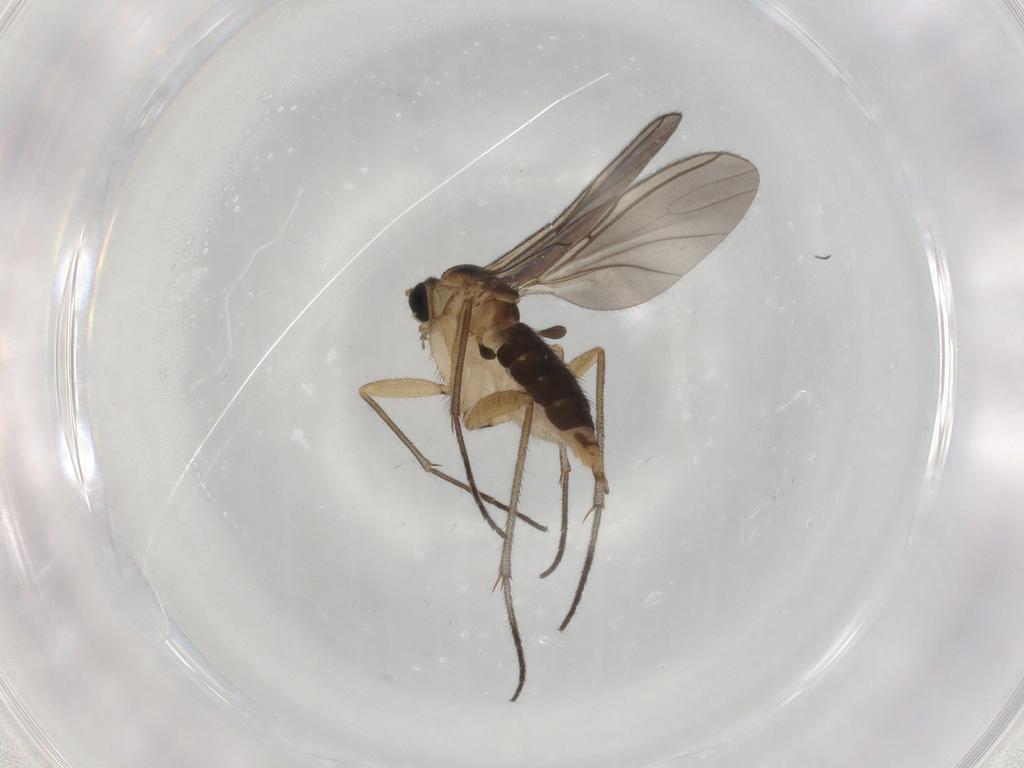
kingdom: Animalia
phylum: Arthropoda
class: Insecta
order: Diptera
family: Sciaridae
